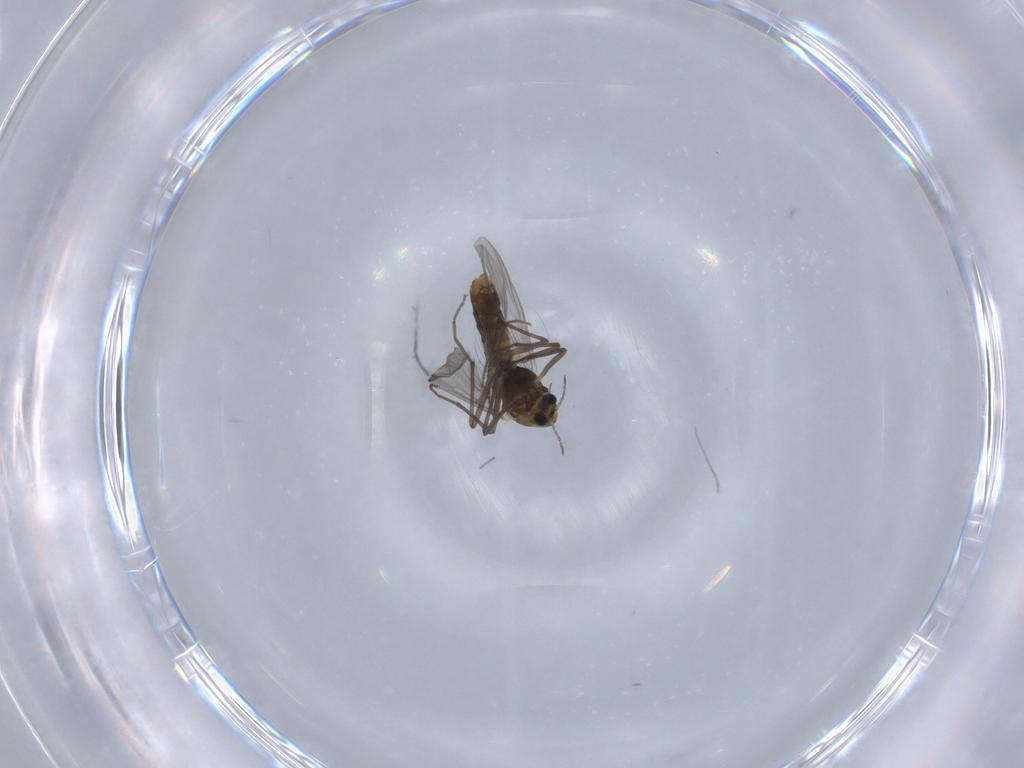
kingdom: Animalia
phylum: Arthropoda
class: Insecta
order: Diptera
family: Chironomidae
